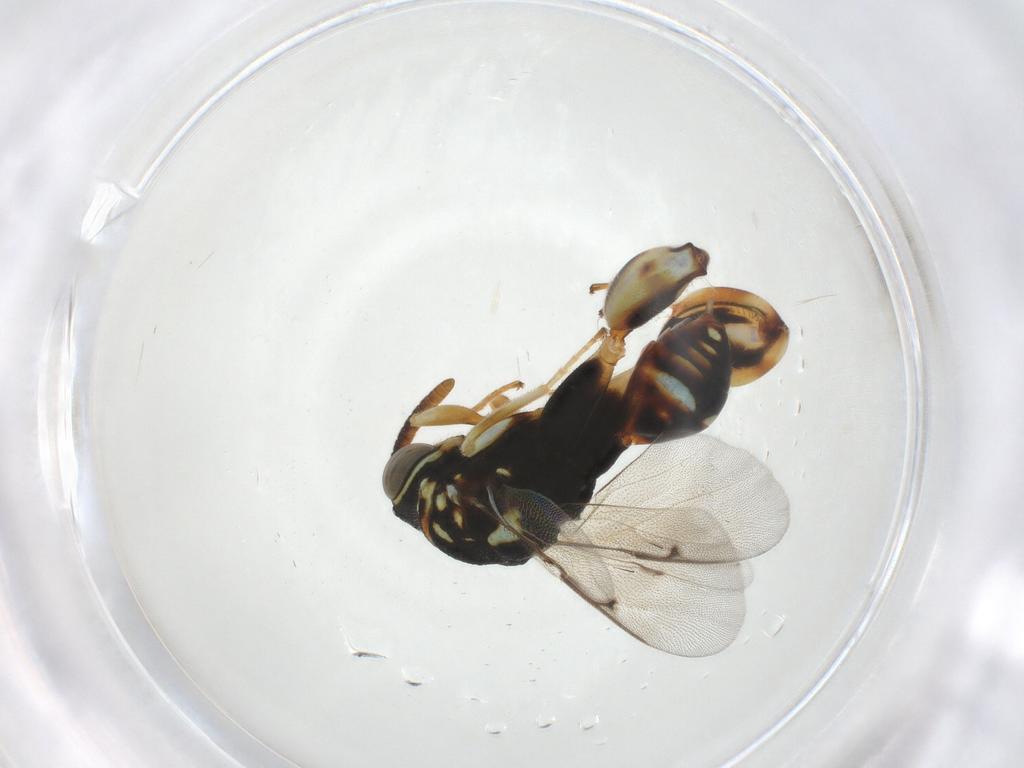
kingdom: Animalia
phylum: Arthropoda
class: Insecta
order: Hymenoptera
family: Chalcididae
